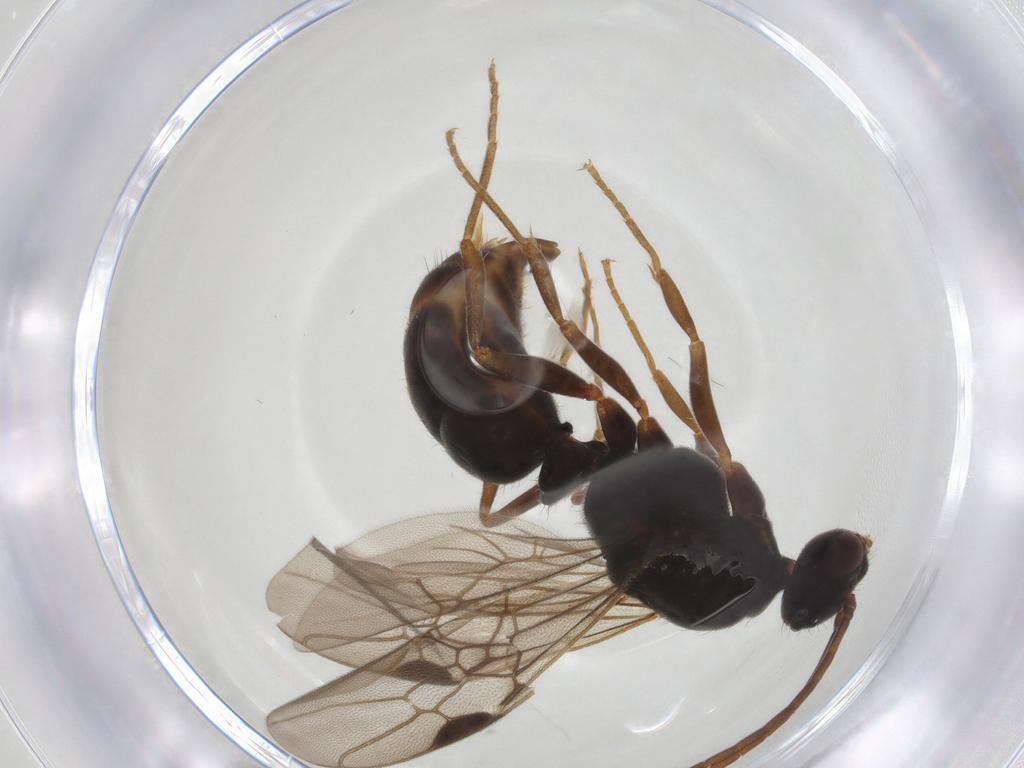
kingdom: Animalia
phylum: Arthropoda
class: Insecta
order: Hymenoptera
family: Formicidae
